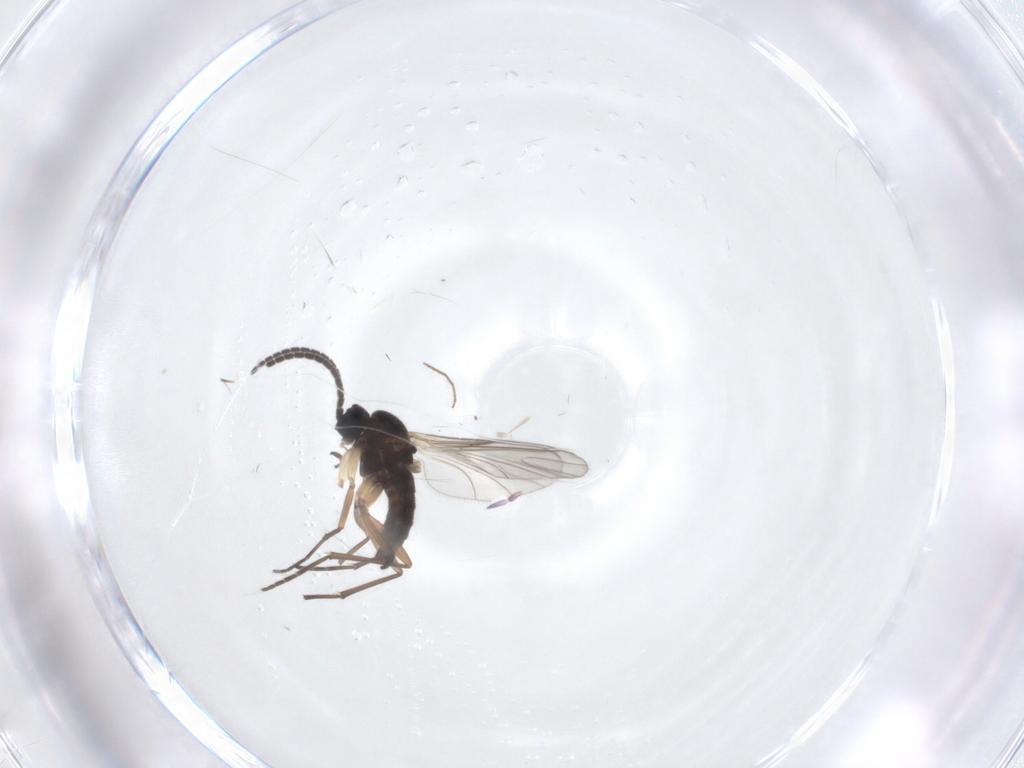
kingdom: Animalia
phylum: Arthropoda
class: Insecta
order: Diptera
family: Sciaridae
